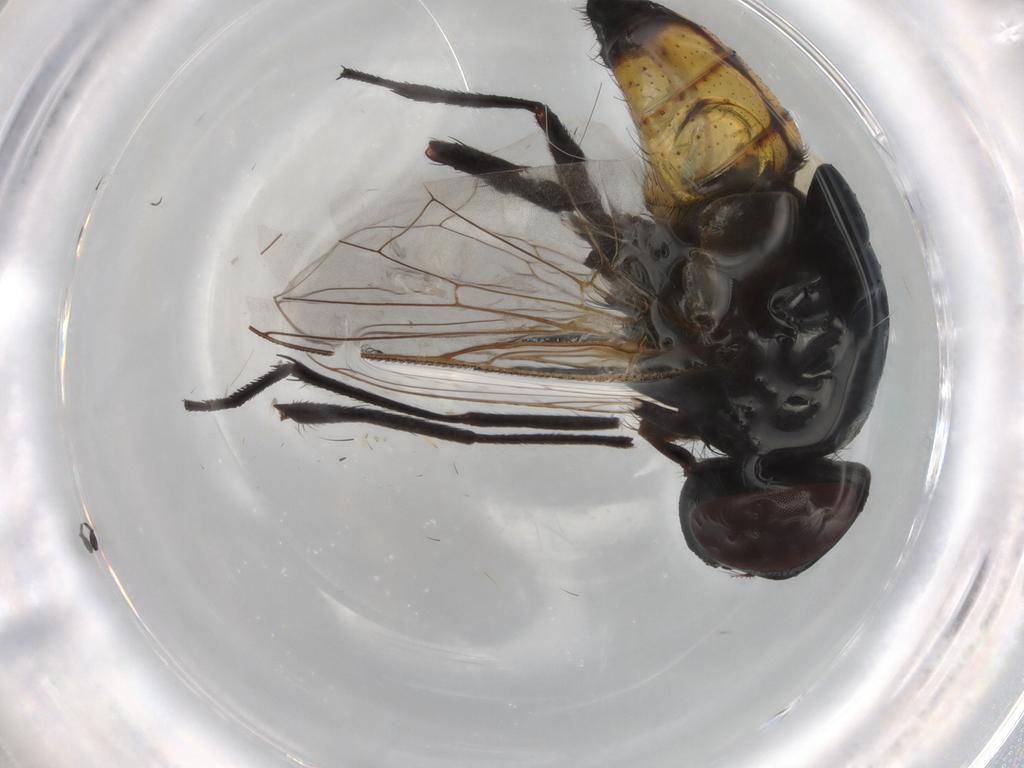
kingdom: Animalia
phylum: Arthropoda
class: Insecta
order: Diptera
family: Muscidae
